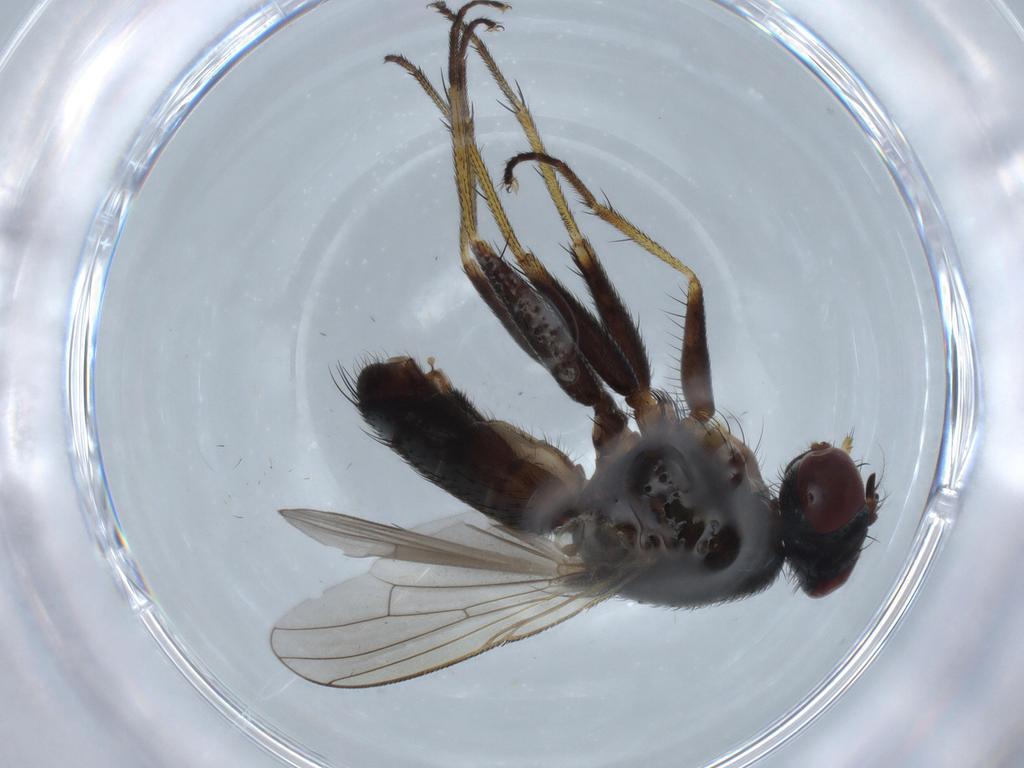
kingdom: Animalia
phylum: Arthropoda
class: Insecta
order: Diptera
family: Muscidae
